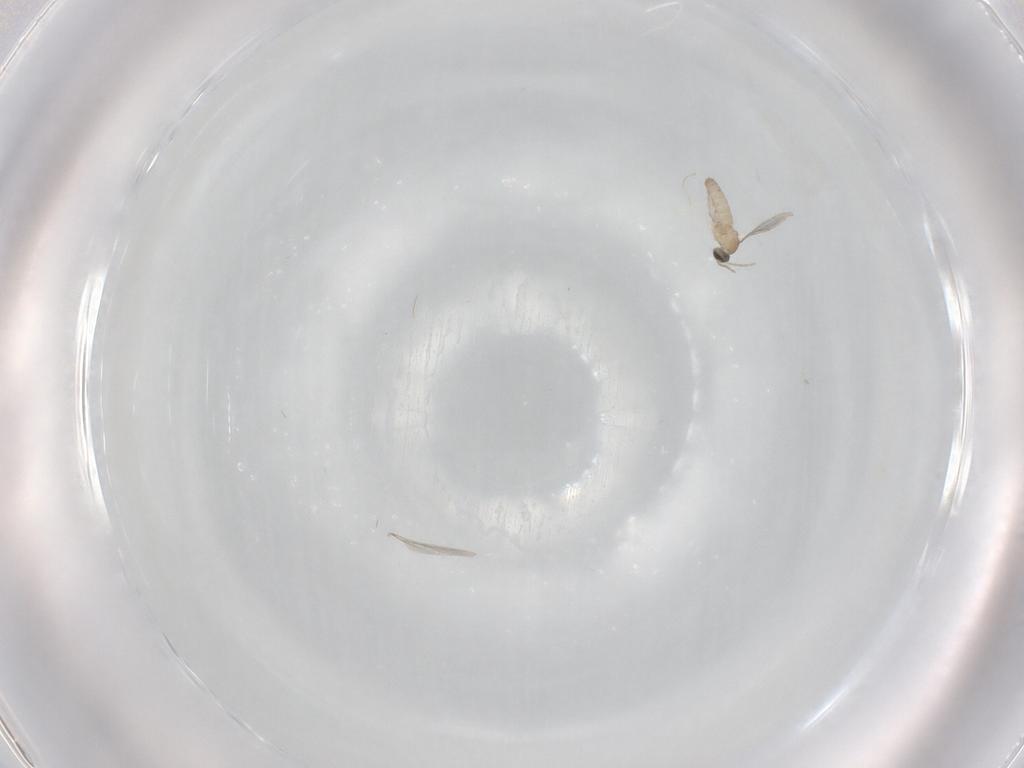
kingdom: Animalia
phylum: Arthropoda
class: Insecta
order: Diptera
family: Cecidomyiidae
